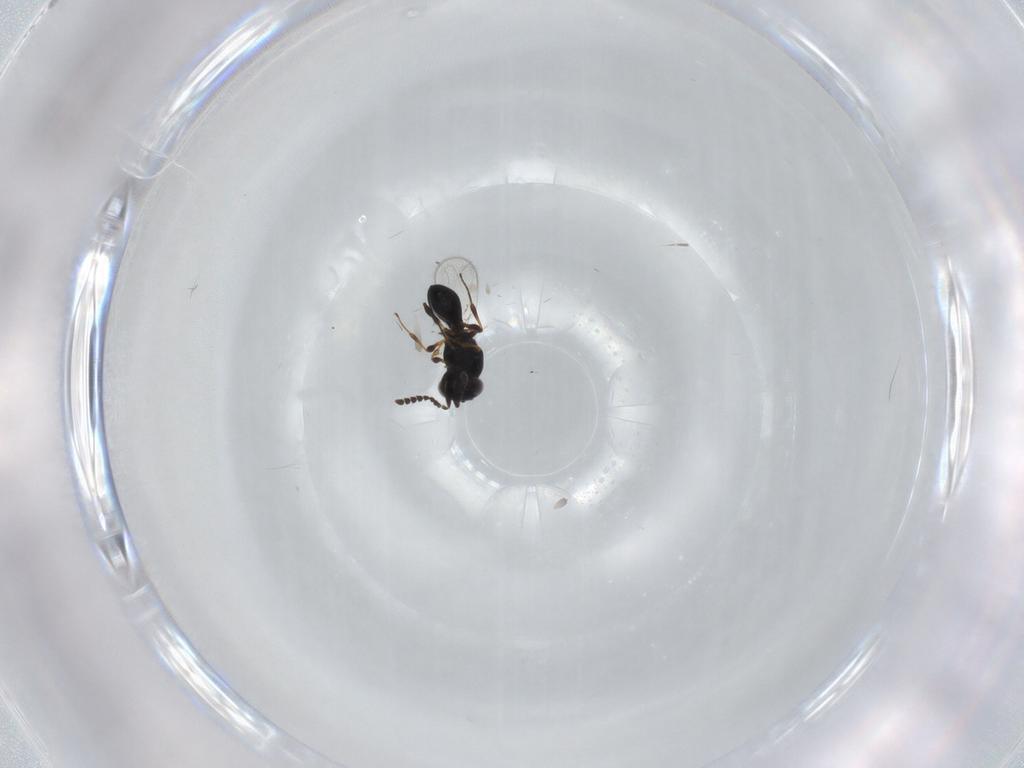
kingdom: Animalia
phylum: Arthropoda
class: Insecta
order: Hymenoptera
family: Platygastridae
